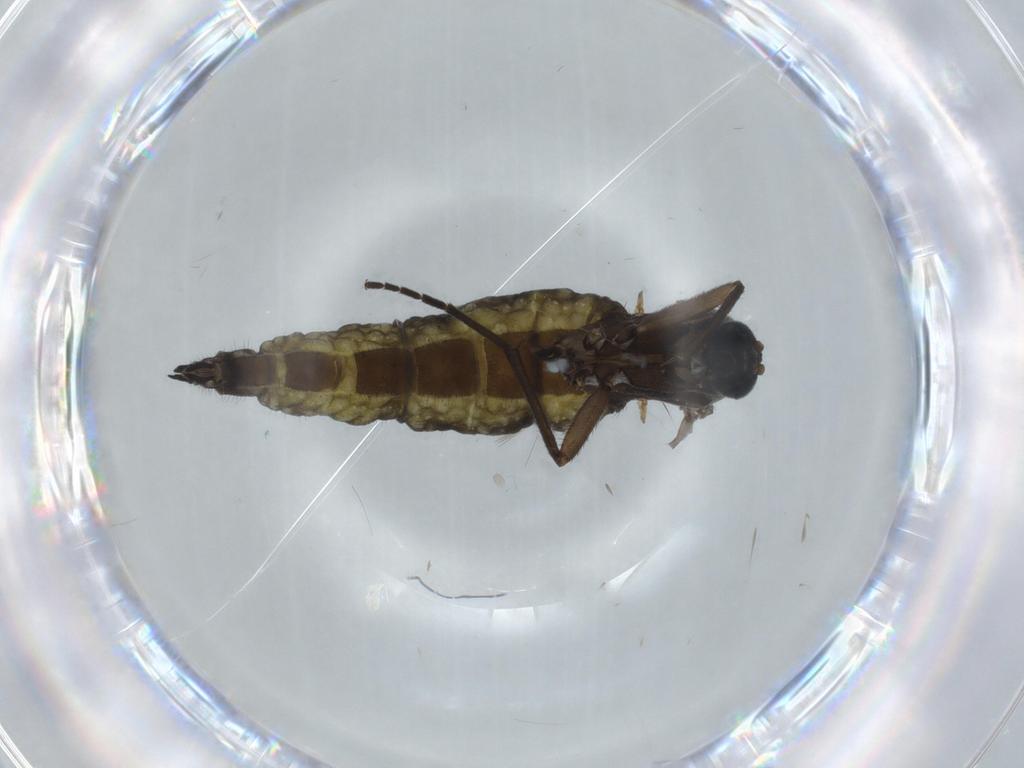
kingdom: Animalia
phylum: Arthropoda
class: Insecta
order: Diptera
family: Sciaridae
